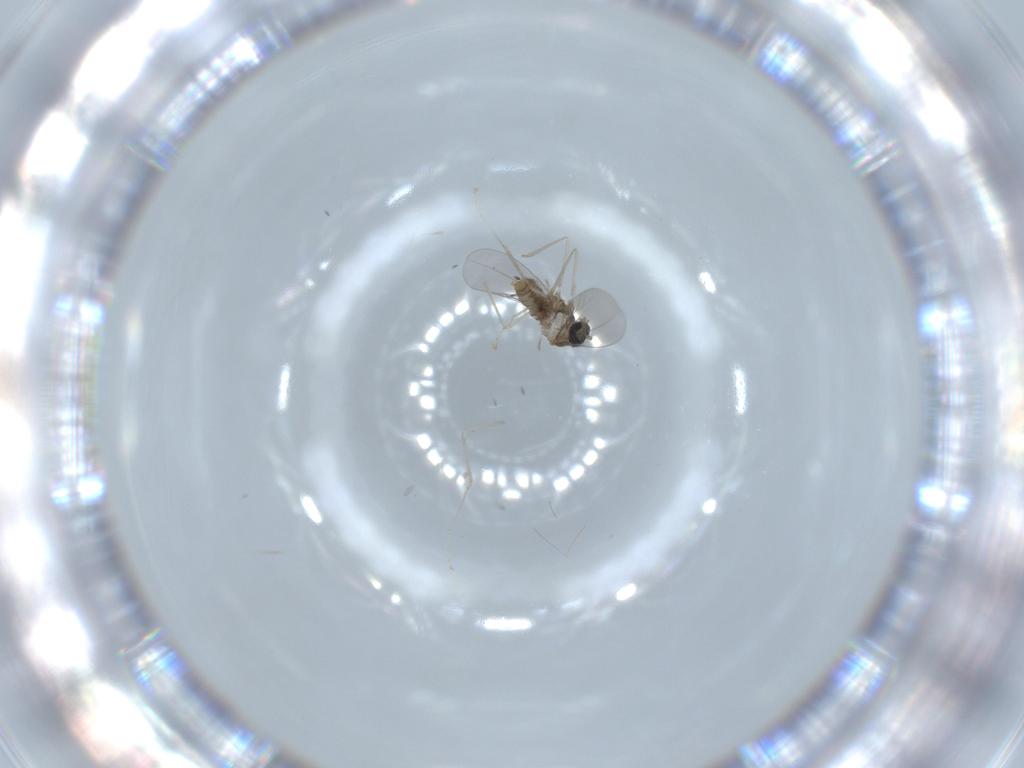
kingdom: Animalia
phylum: Arthropoda
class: Insecta
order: Diptera
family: Cecidomyiidae
